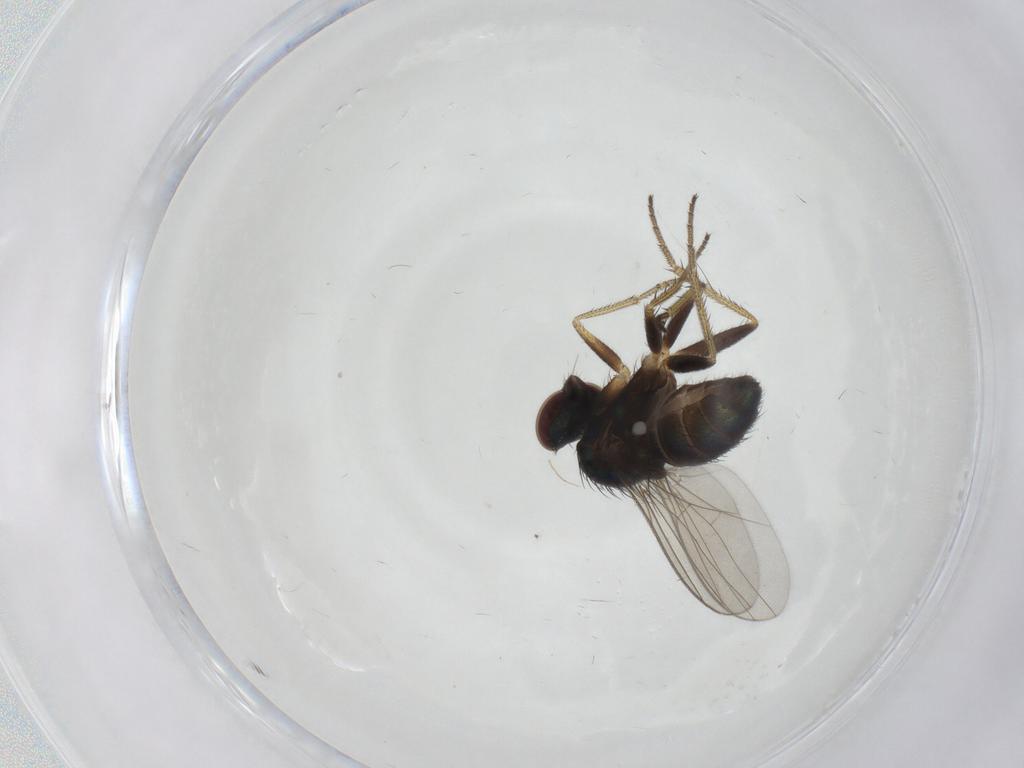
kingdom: Animalia
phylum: Arthropoda
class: Insecta
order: Diptera
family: Dolichopodidae
